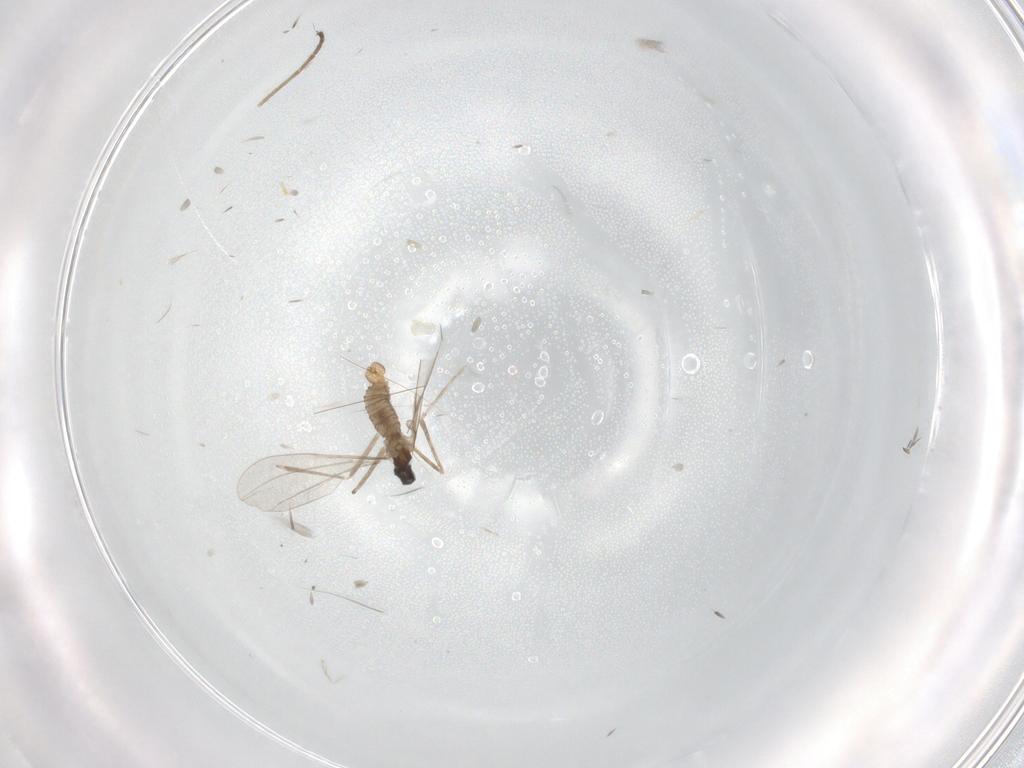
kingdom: Animalia
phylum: Arthropoda
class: Insecta
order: Diptera
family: Cecidomyiidae
